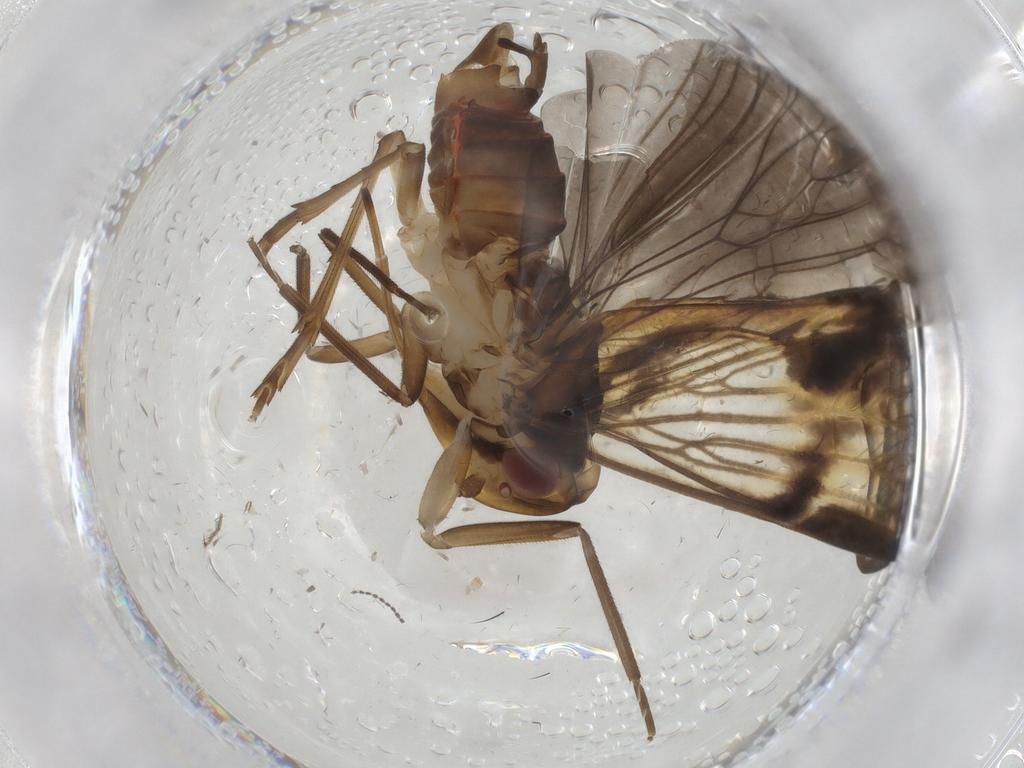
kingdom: Animalia
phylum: Arthropoda
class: Insecta
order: Hemiptera
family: Cixiidae
